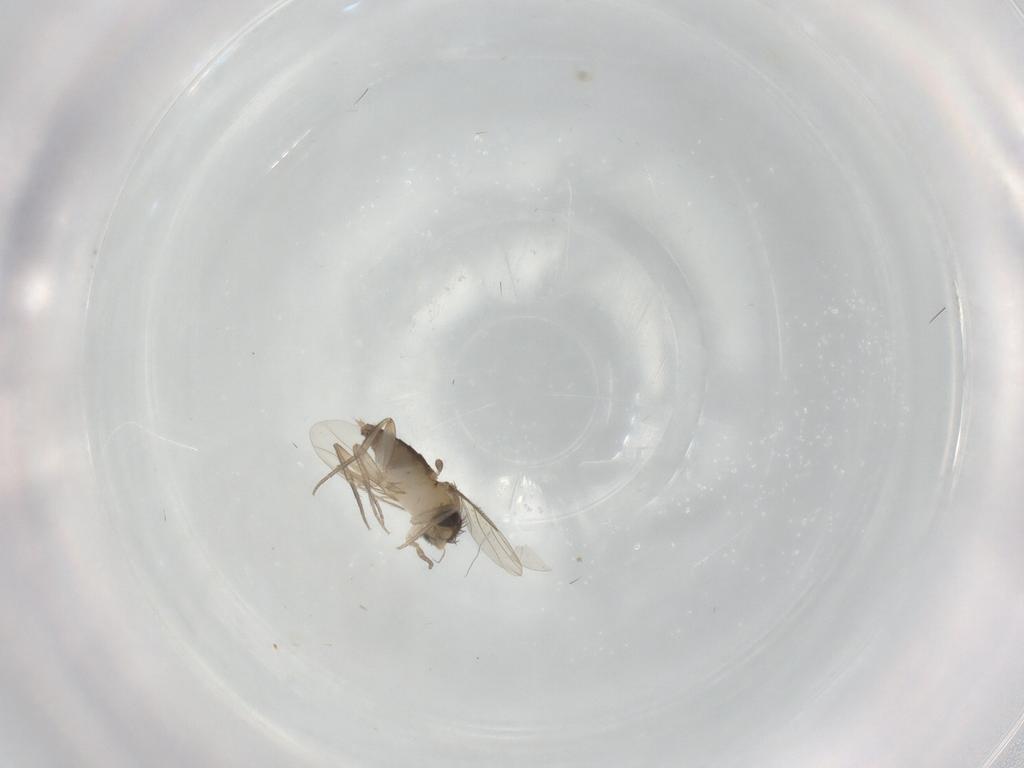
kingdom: Animalia
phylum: Arthropoda
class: Insecta
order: Diptera
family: Phoridae
